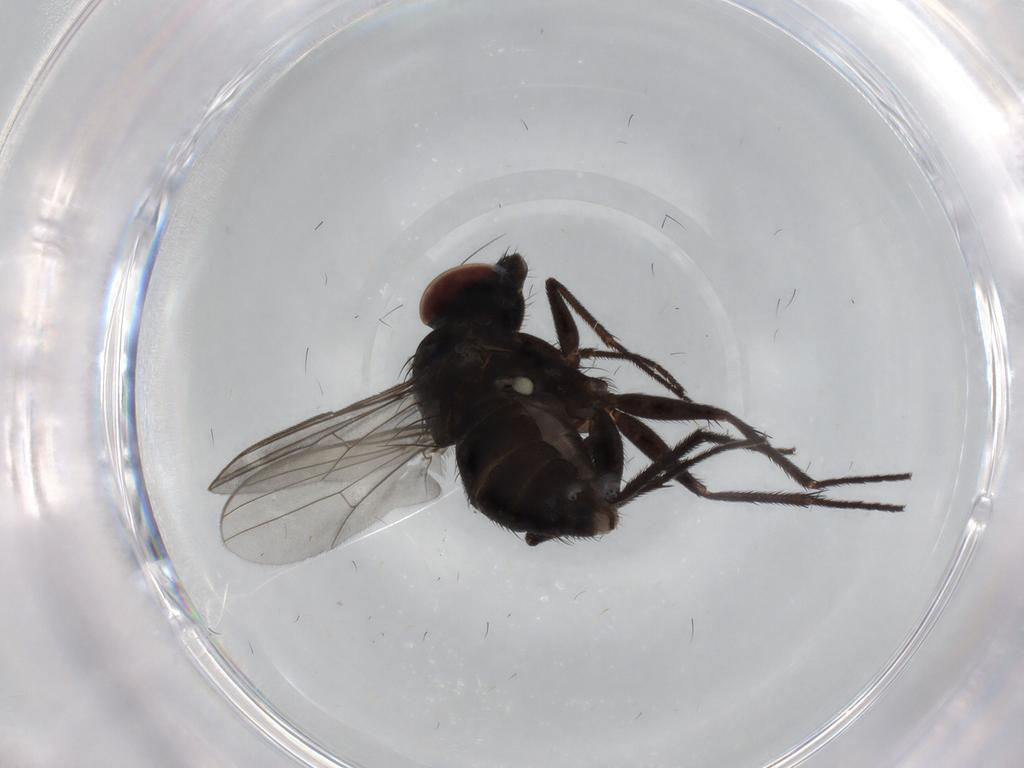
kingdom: Animalia
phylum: Arthropoda
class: Insecta
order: Diptera
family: Dolichopodidae
